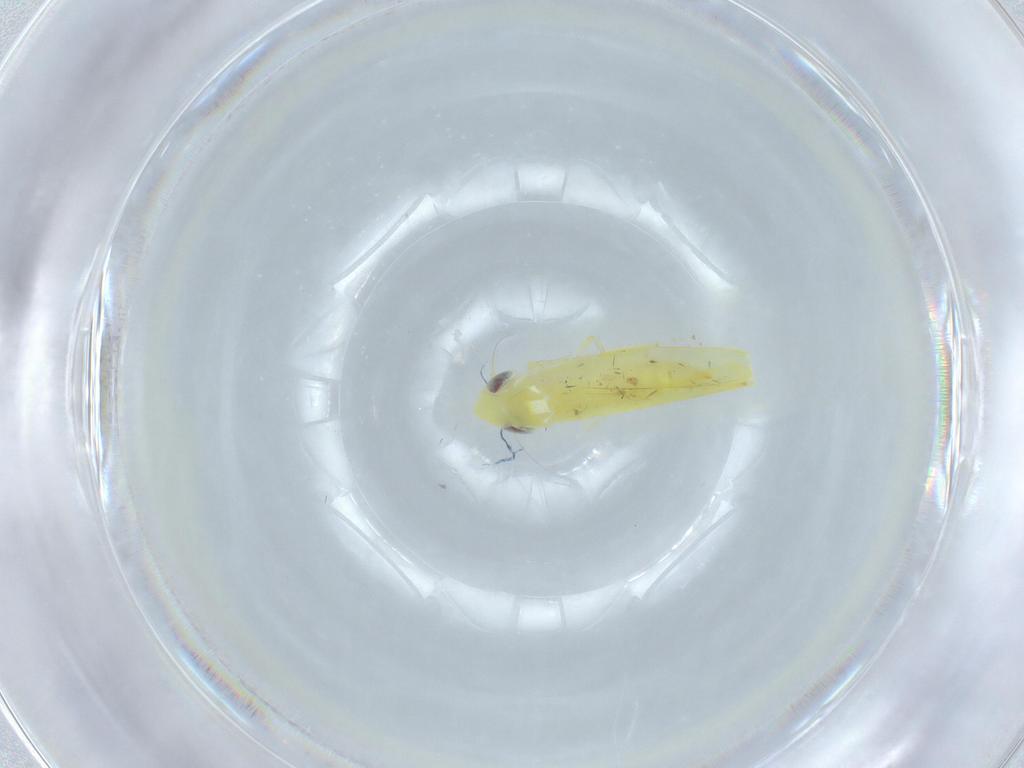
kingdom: Animalia
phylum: Arthropoda
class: Insecta
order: Hemiptera
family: Cicadellidae
